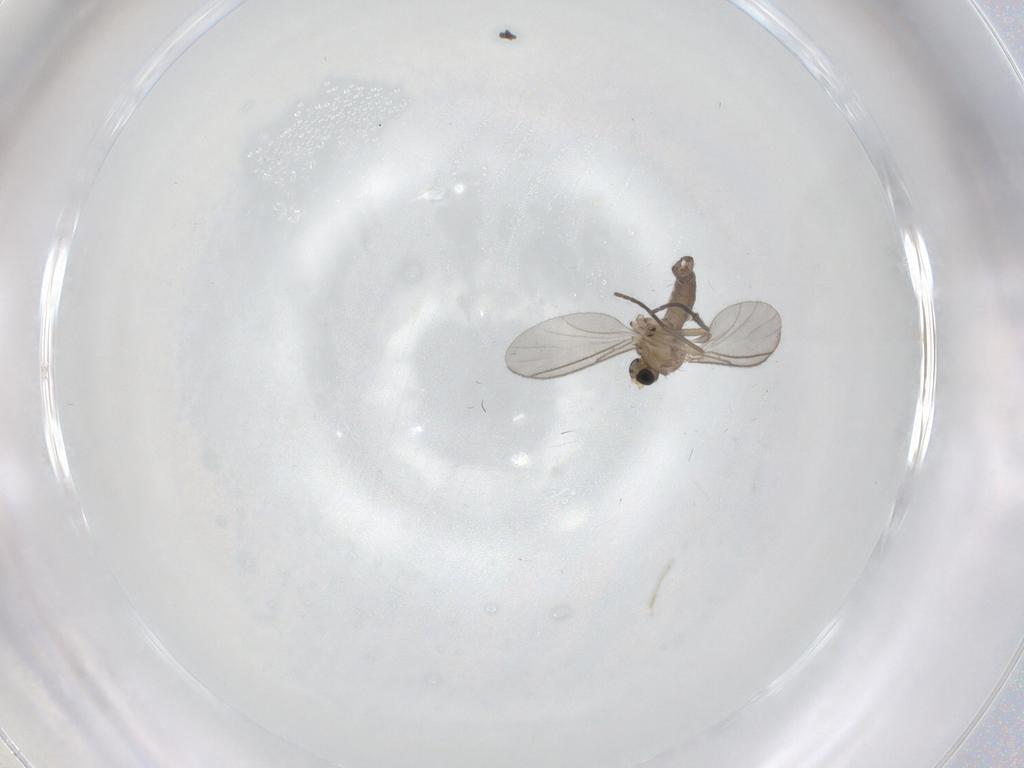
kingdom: Animalia
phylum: Arthropoda
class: Insecta
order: Diptera
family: Sciaridae
